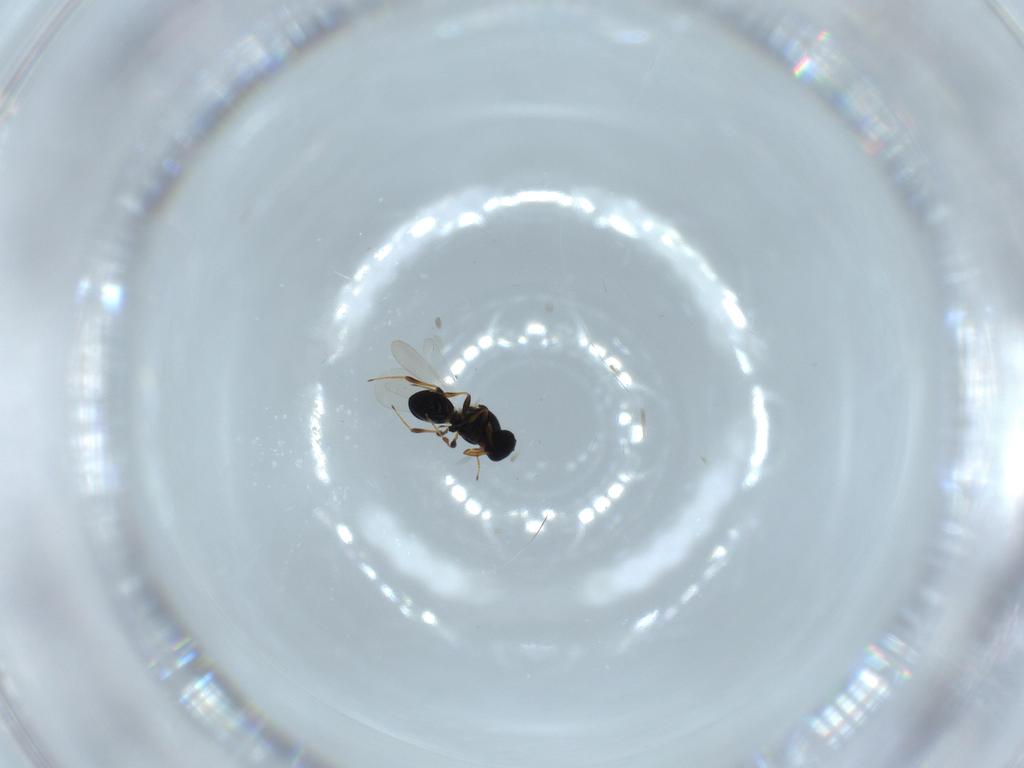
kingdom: Animalia
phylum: Arthropoda
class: Insecta
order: Hymenoptera
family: Platygastridae
